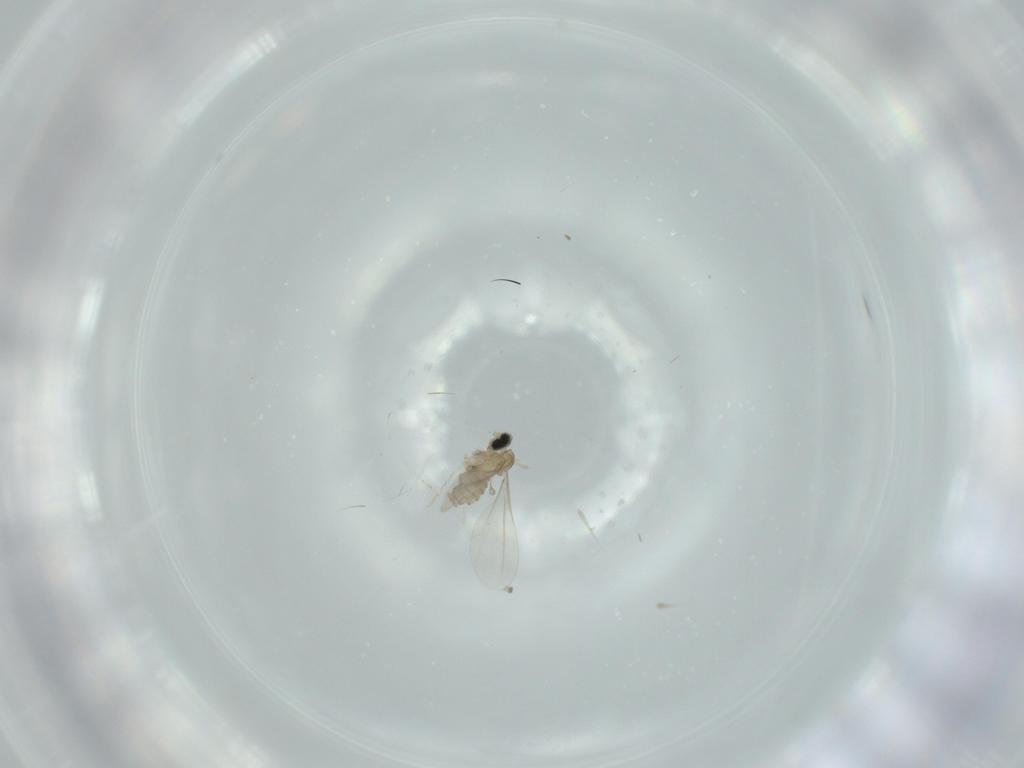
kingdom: Animalia
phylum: Arthropoda
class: Insecta
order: Diptera
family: Cecidomyiidae
